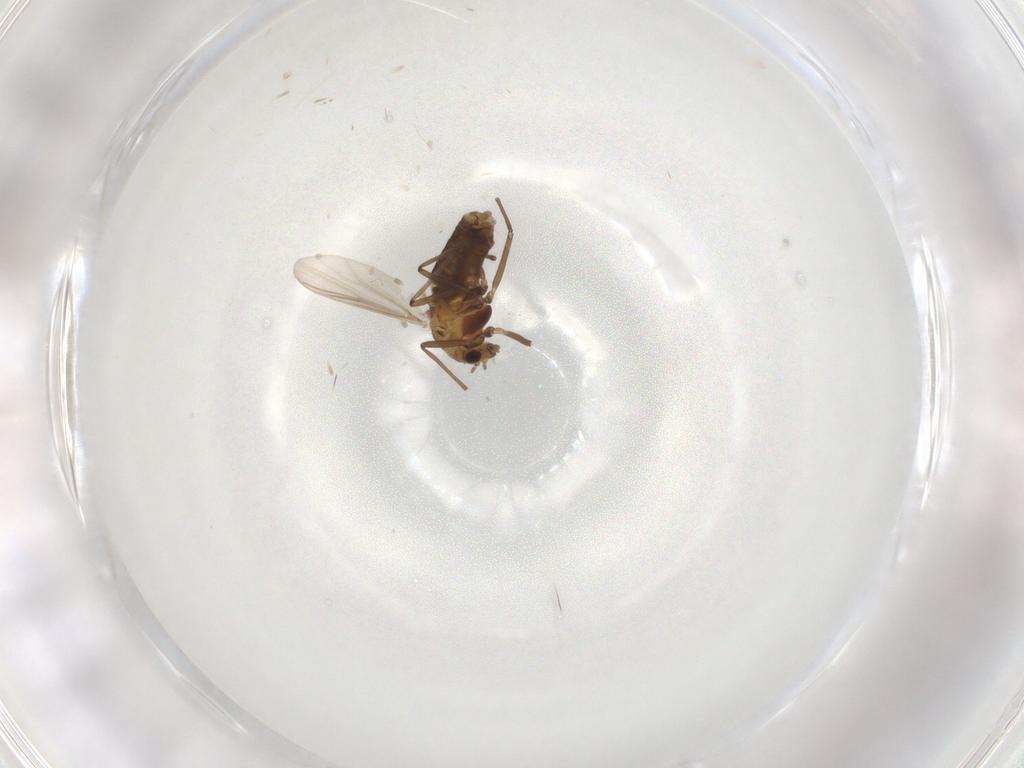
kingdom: Animalia
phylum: Arthropoda
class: Insecta
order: Diptera
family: Chironomidae
